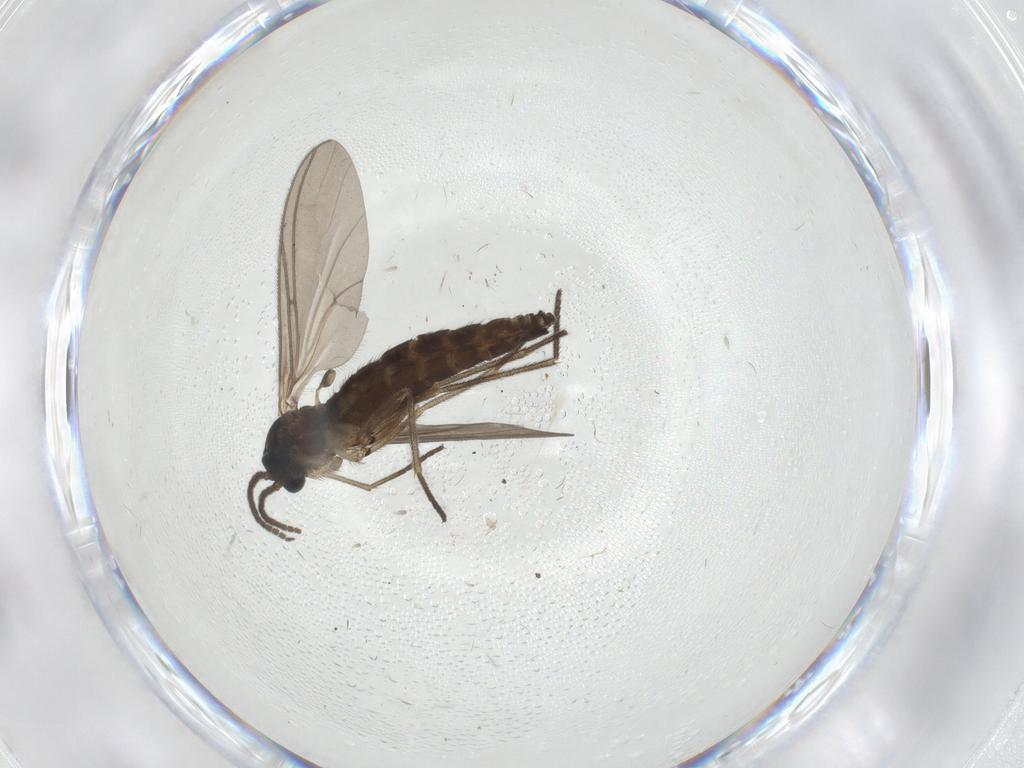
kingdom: Animalia
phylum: Arthropoda
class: Insecta
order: Diptera
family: Sciaridae
